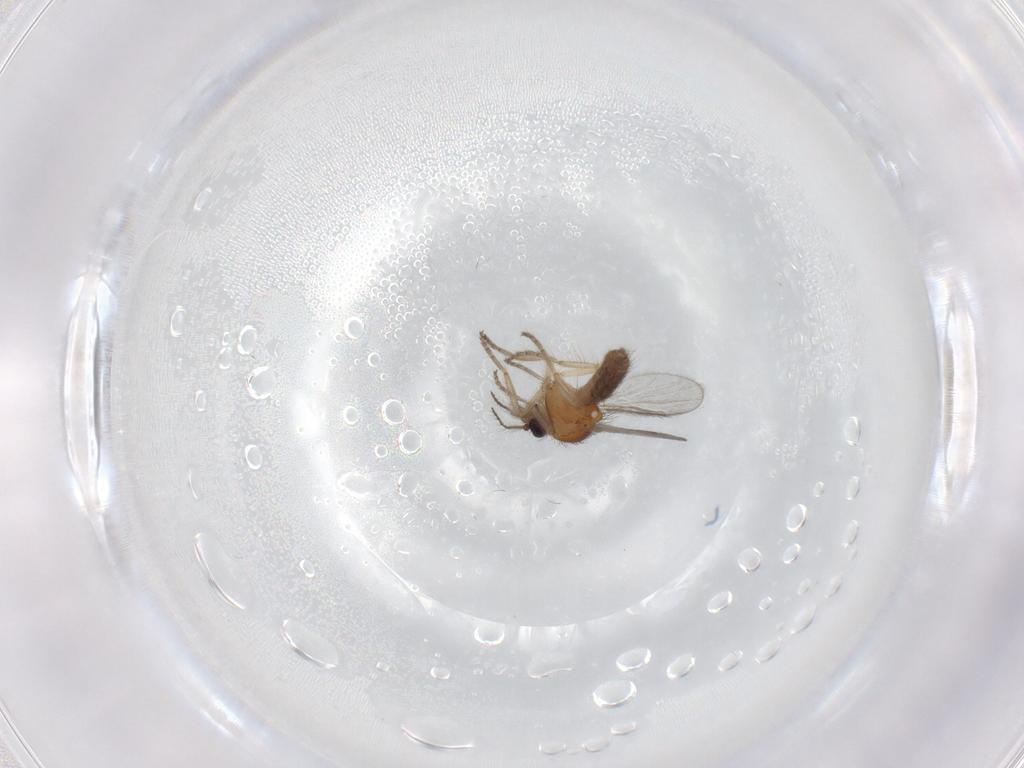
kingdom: Animalia
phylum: Arthropoda
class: Insecta
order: Diptera
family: Ceratopogonidae
